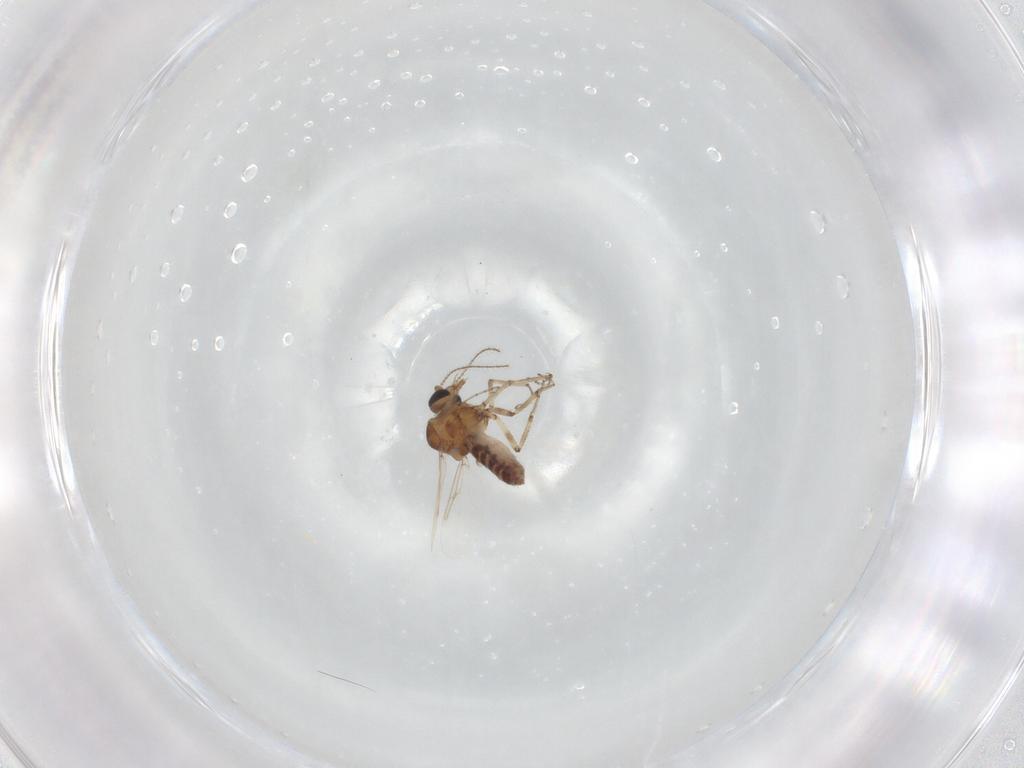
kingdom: Animalia
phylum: Arthropoda
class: Insecta
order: Diptera
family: Ceratopogonidae
